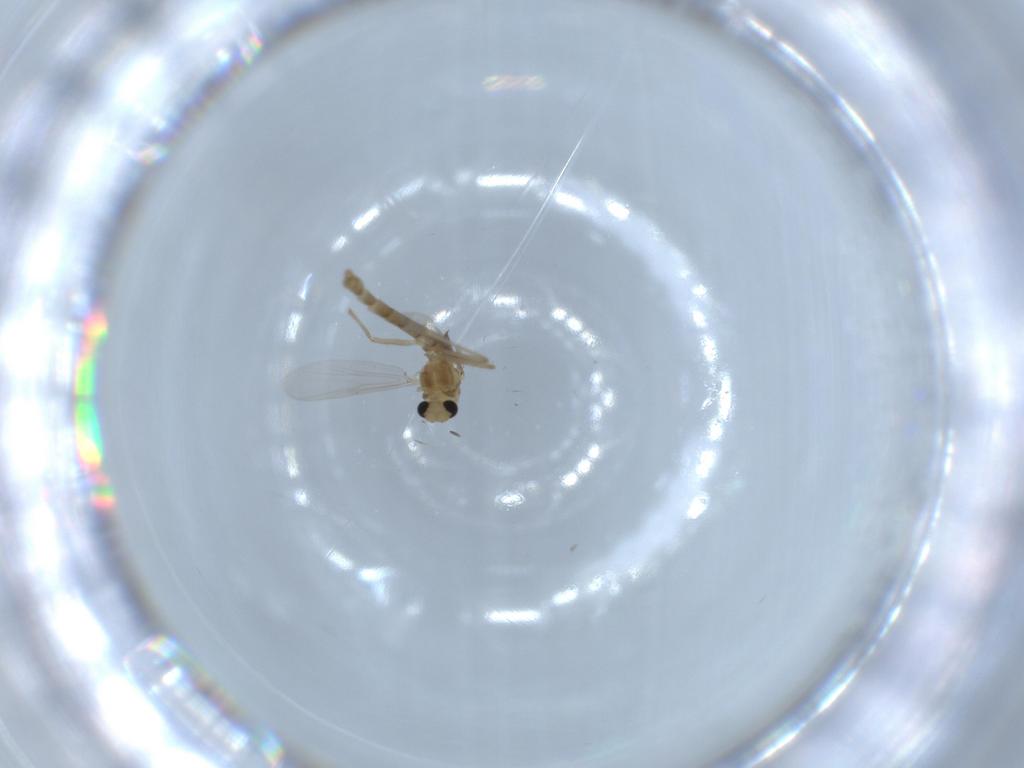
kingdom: Animalia
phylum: Arthropoda
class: Insecta
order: Diptera
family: Chironomidae
